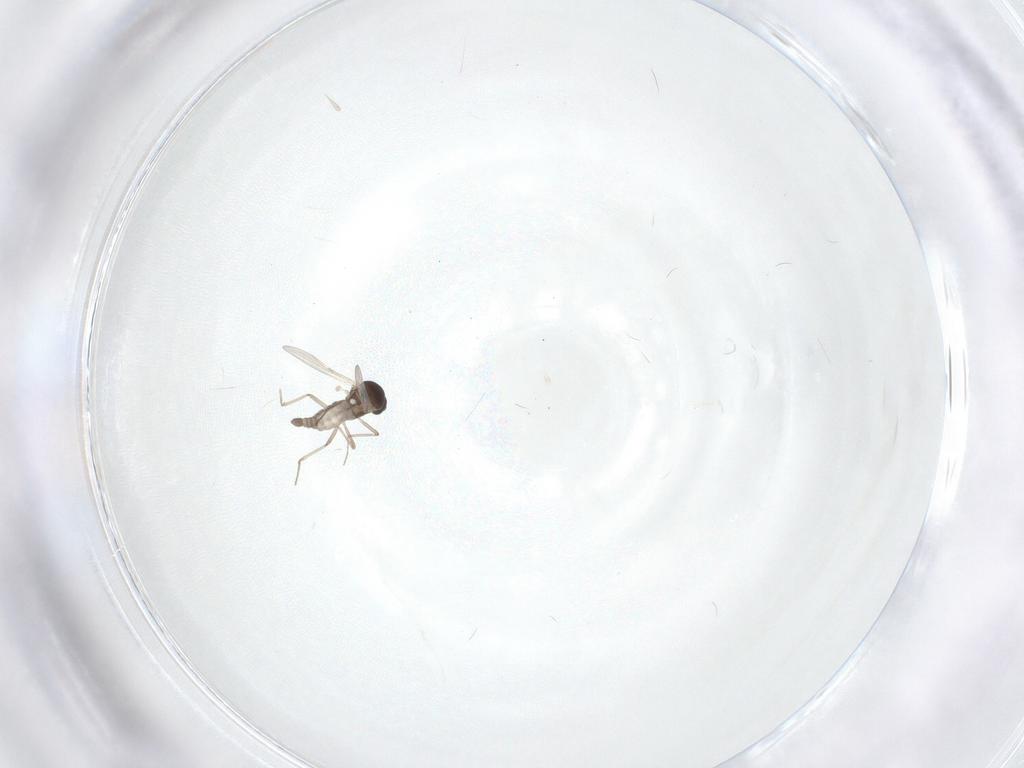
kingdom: Animalia
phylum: Arthropoda
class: Insecta
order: Diptera
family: Ceratopogonidae
